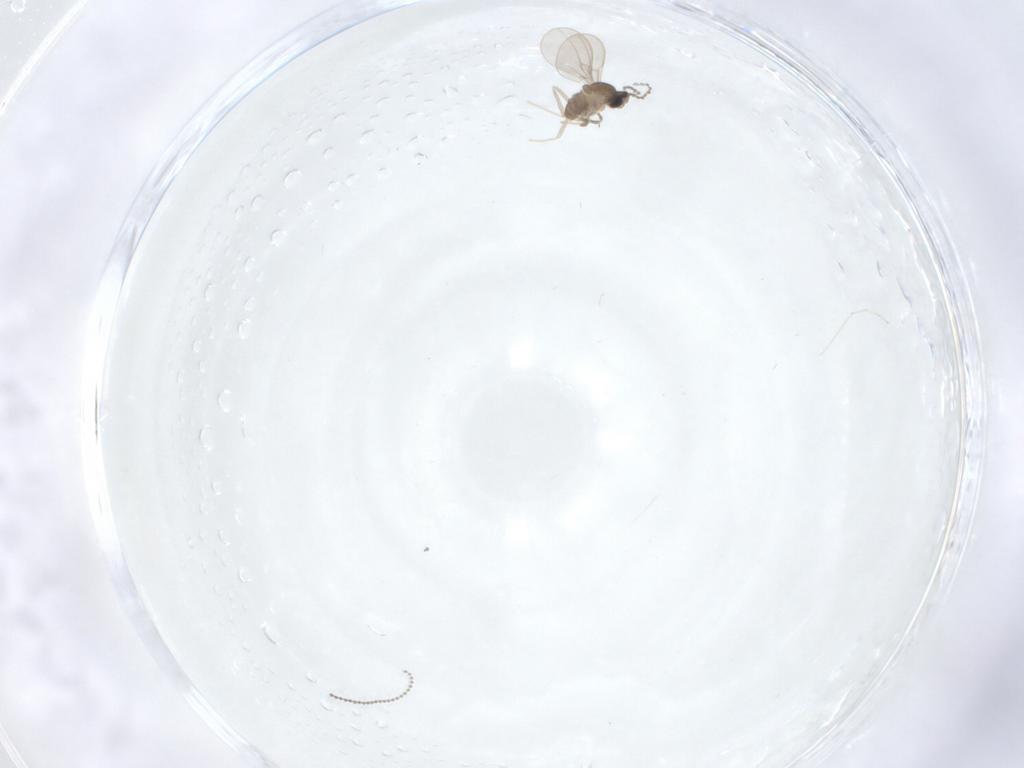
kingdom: Animalia
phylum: Arthropoda
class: Insecta
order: Diptera
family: Cecidomyiidae
